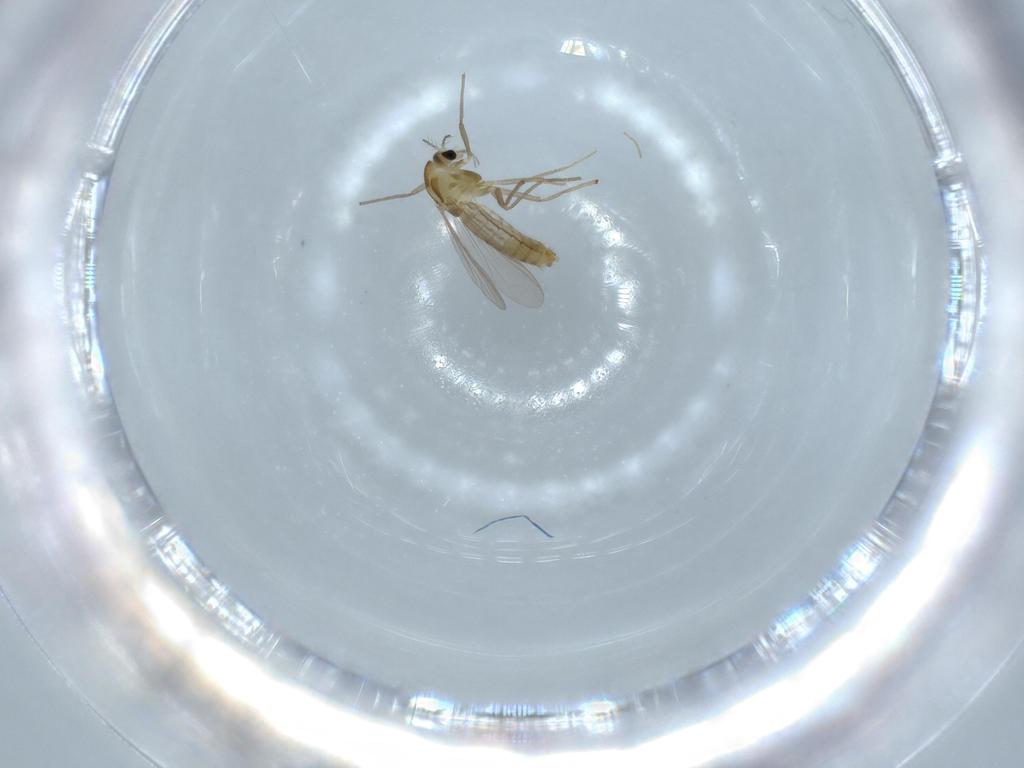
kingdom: Animalia
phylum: Arthropoda
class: Insecta
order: Diptera
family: Chironomidae
